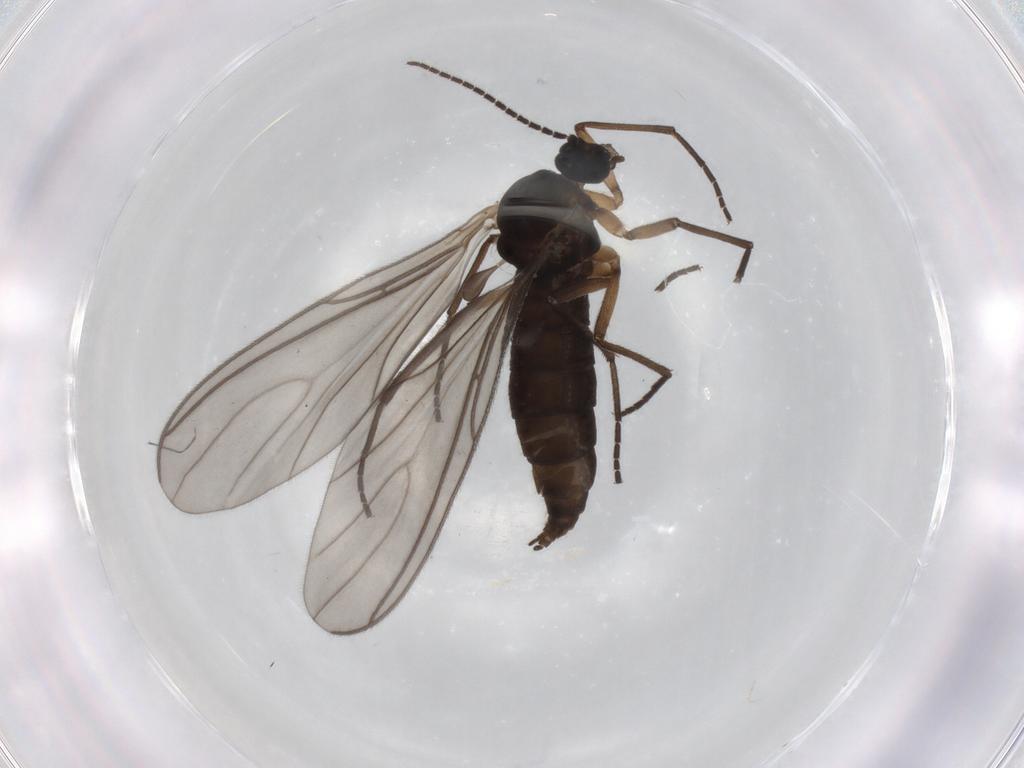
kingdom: Animalia
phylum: Arthropoda
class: Insecta
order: Diptera
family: Sciaridae
